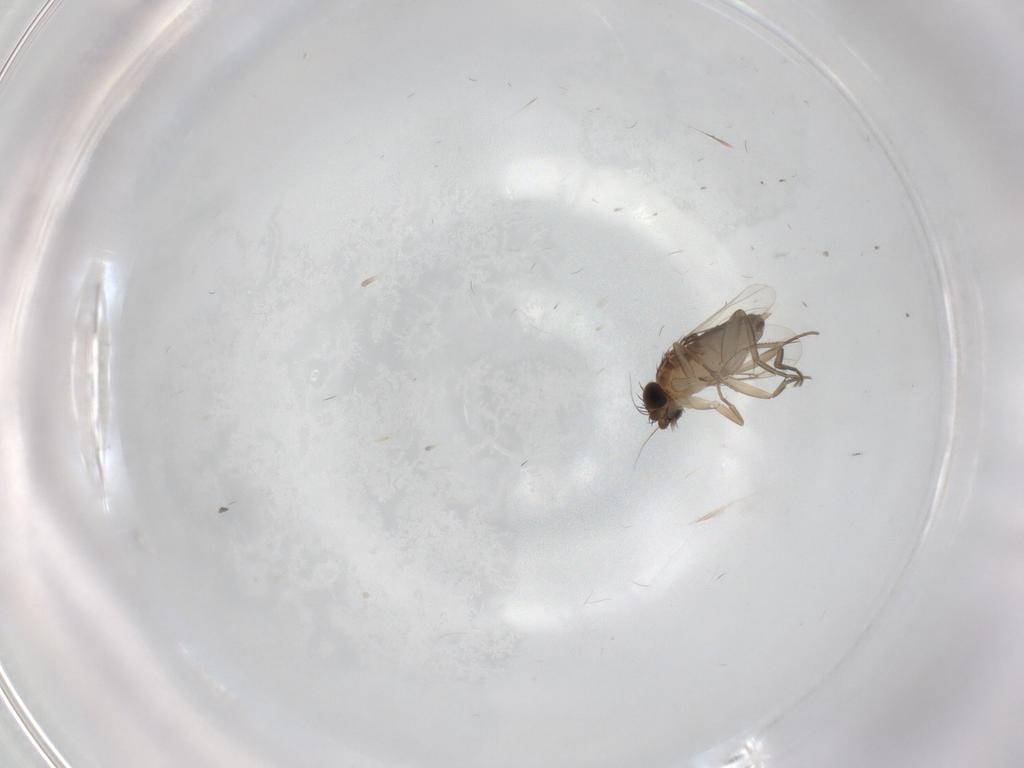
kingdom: Animalia
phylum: Arthropoda
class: Insecta
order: Diptera
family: Phoridae
